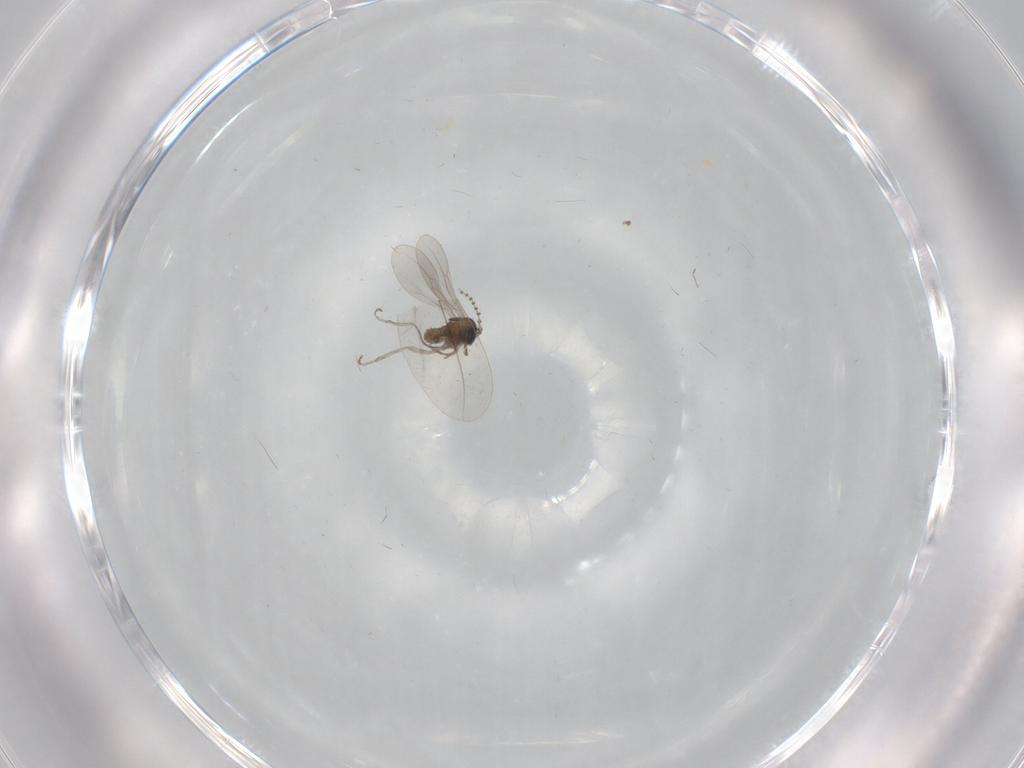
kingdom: Animalia
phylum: Arthropoda
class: Insecta
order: Diptera
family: Cecidomyiidae
